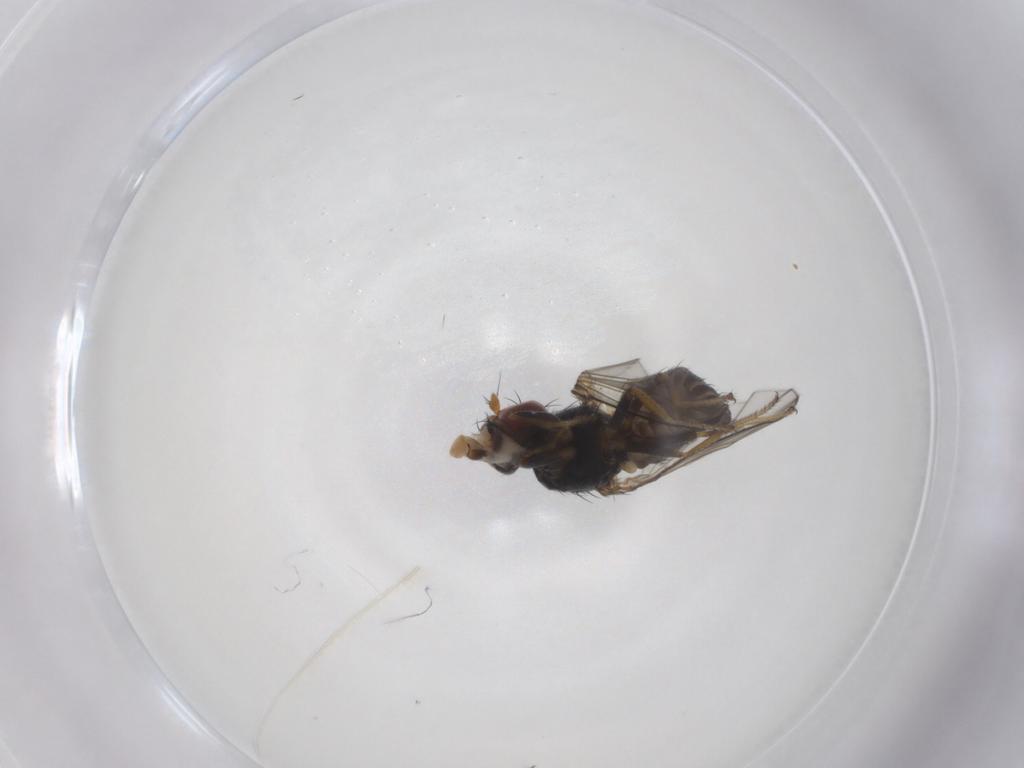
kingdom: Animalia
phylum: Arthropoda
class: Insecta
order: Diptera
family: Ephydridae
